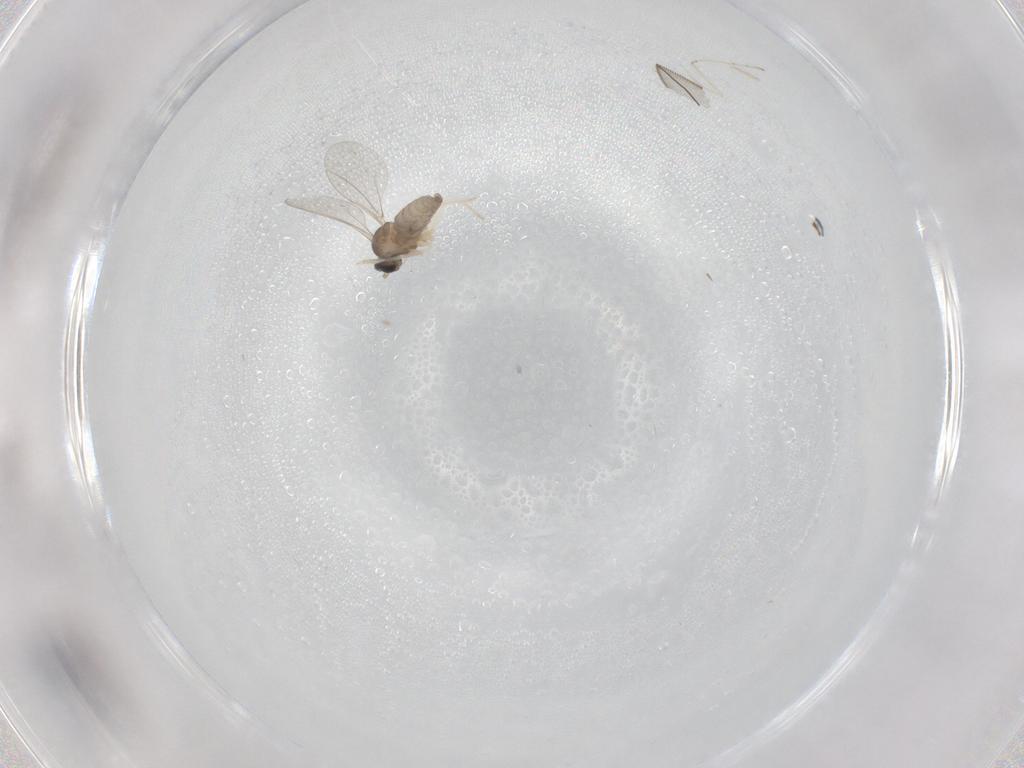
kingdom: Animalia
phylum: Arthropoda
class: Insecta
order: Diptera
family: Cecidomyiidae
